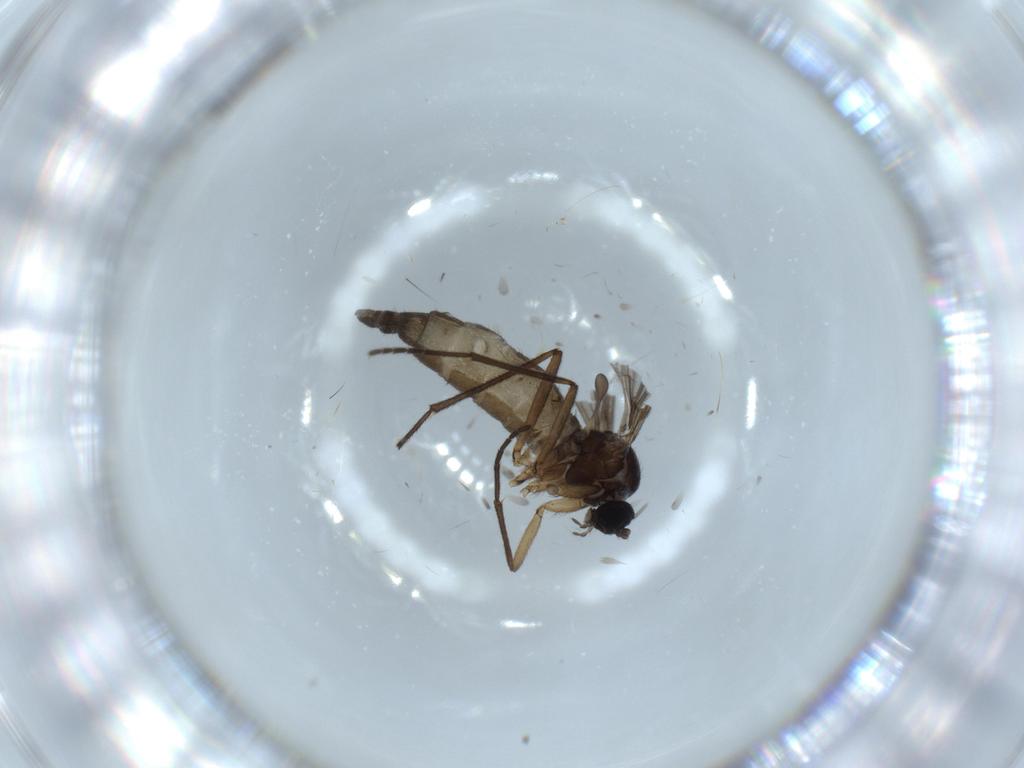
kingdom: Animalia
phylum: Arthropoda
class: Insecta
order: Diptera
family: Sciaridae
